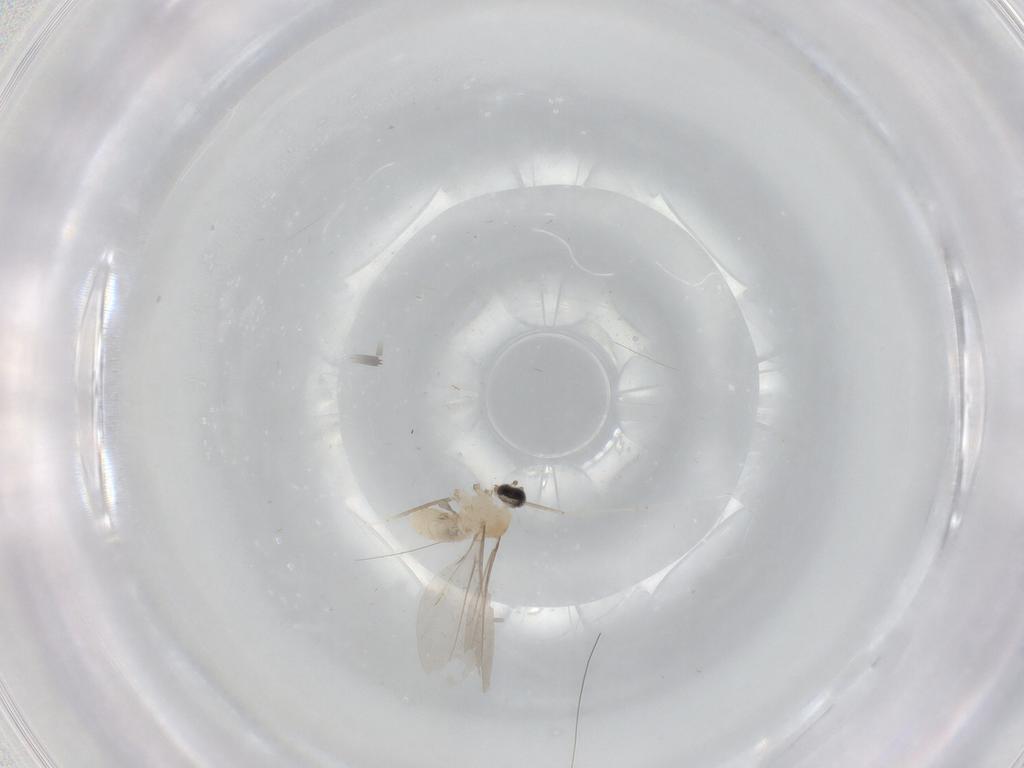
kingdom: Animalia
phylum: Arthropoda
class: Insecta
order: Diptera
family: Cecidomyiidae
